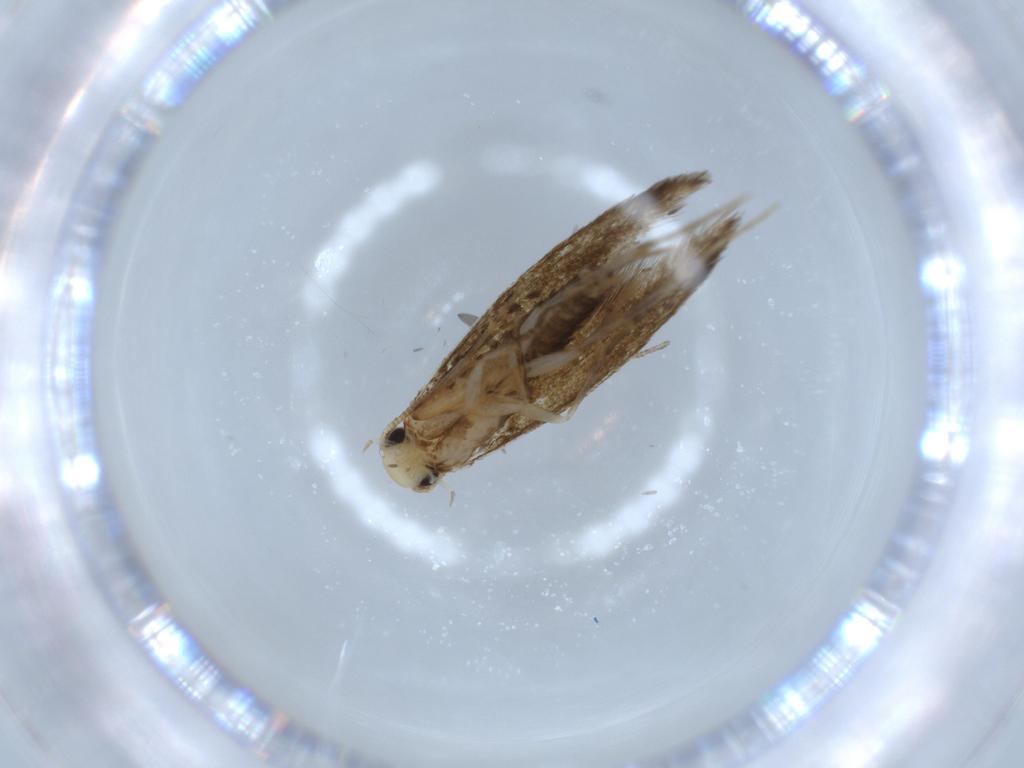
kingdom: Animalia
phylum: Arthropoda
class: Insecta
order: Lepidoptera
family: Tineidae
